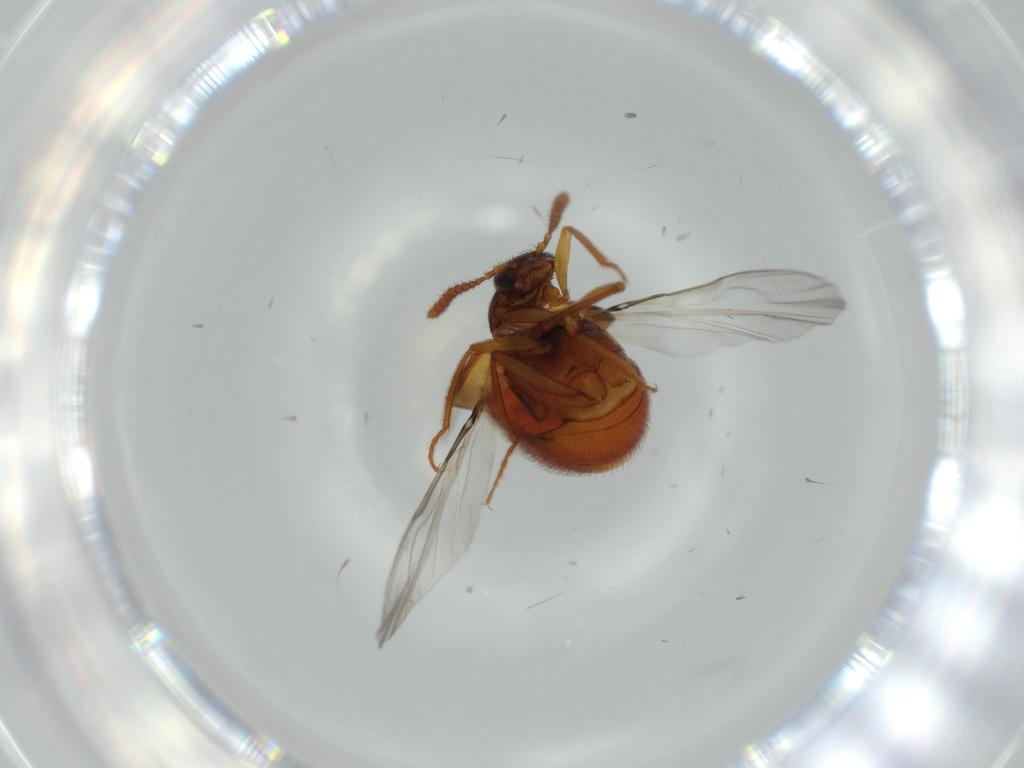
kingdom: Animalia
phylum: Arthropoda
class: Insecta
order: Coleoptera
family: Staphylinidae
